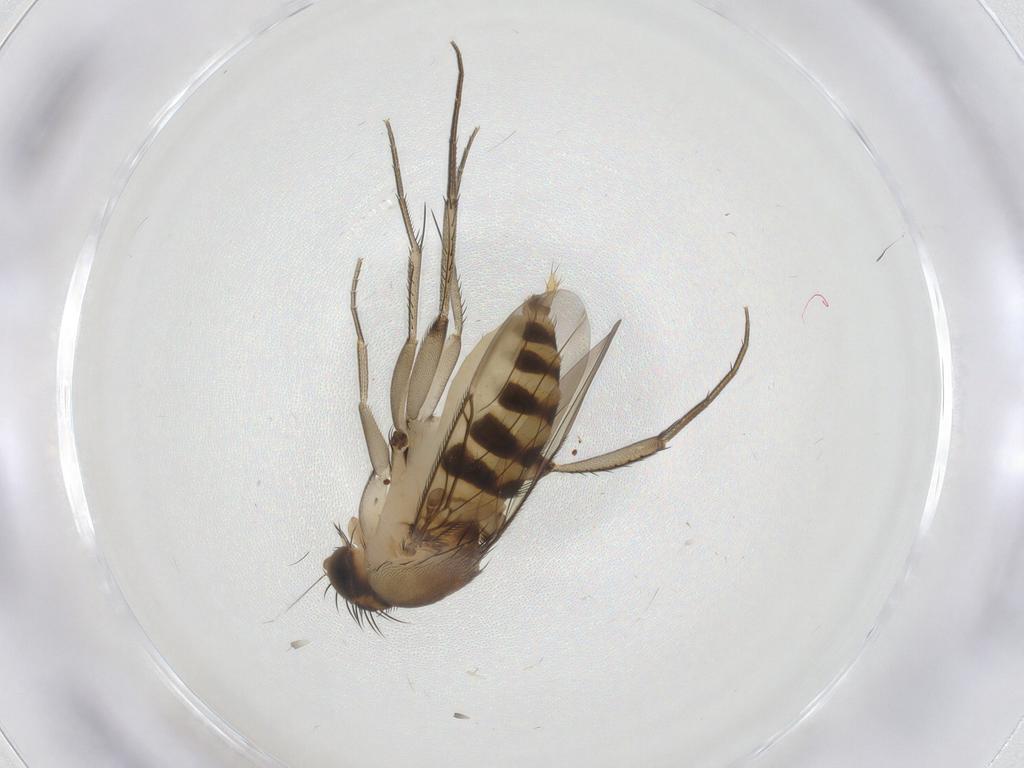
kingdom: Animalia
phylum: Arthropoda
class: Insecta
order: Diptera
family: Phoridae
